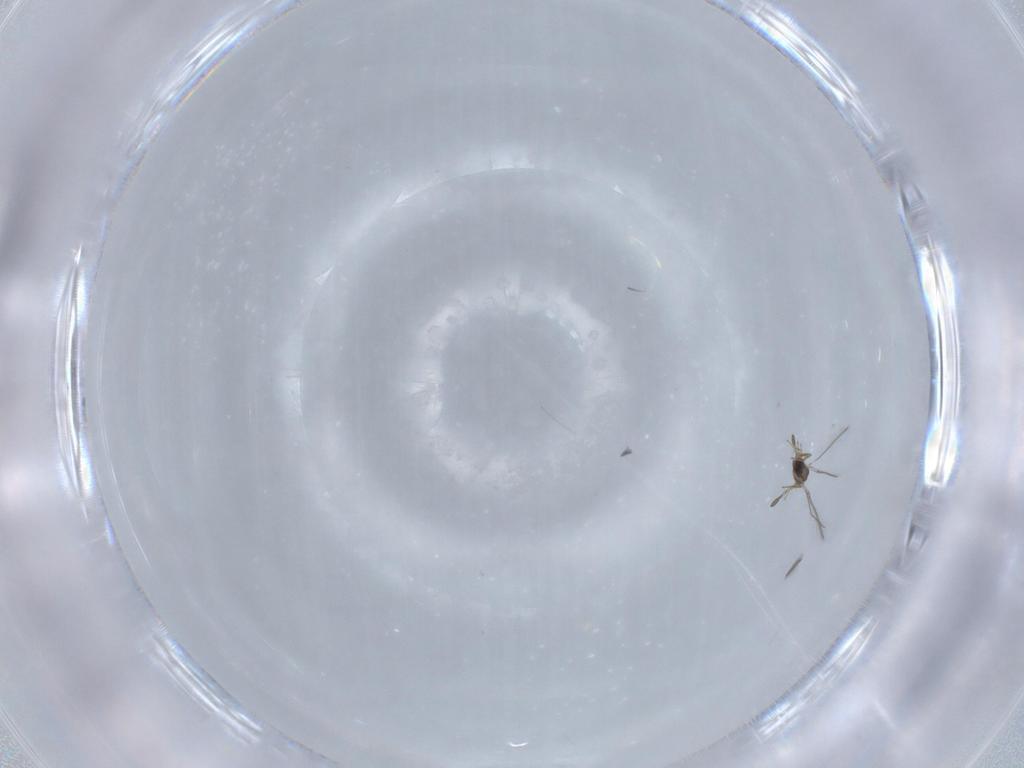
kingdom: Animalia
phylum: Arthropoda
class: Insecta
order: Hymenoptera
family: Mymaridae
